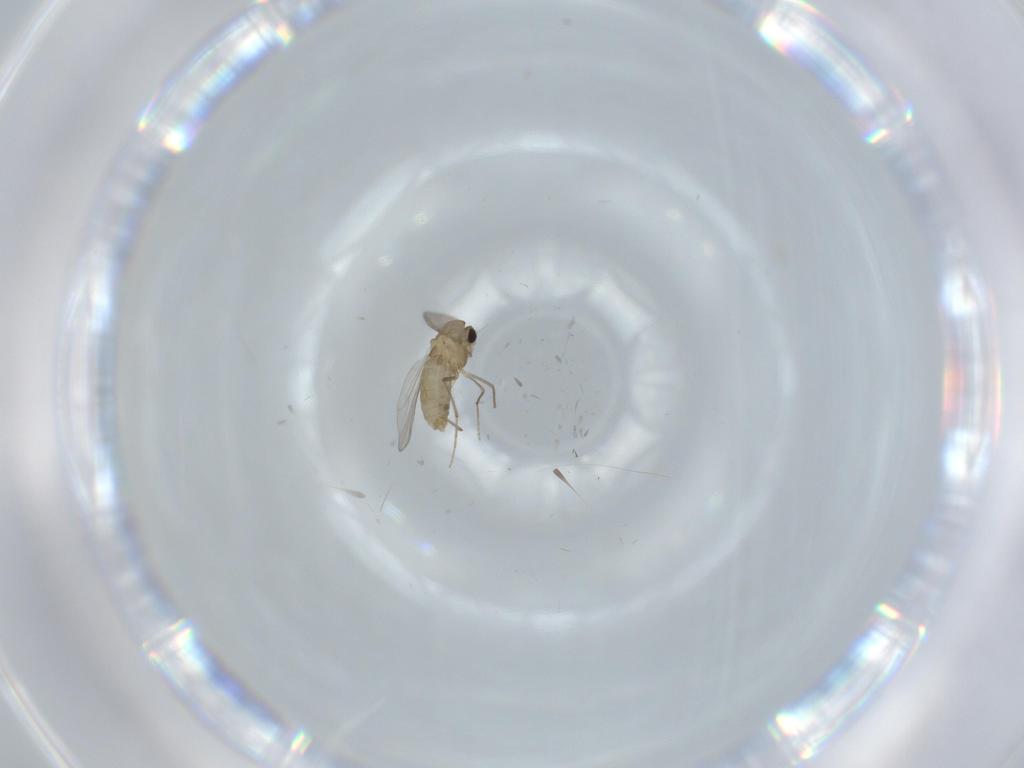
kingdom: Animalia
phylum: Arthropoda
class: Insecta
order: Diptera
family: Chironomidae
